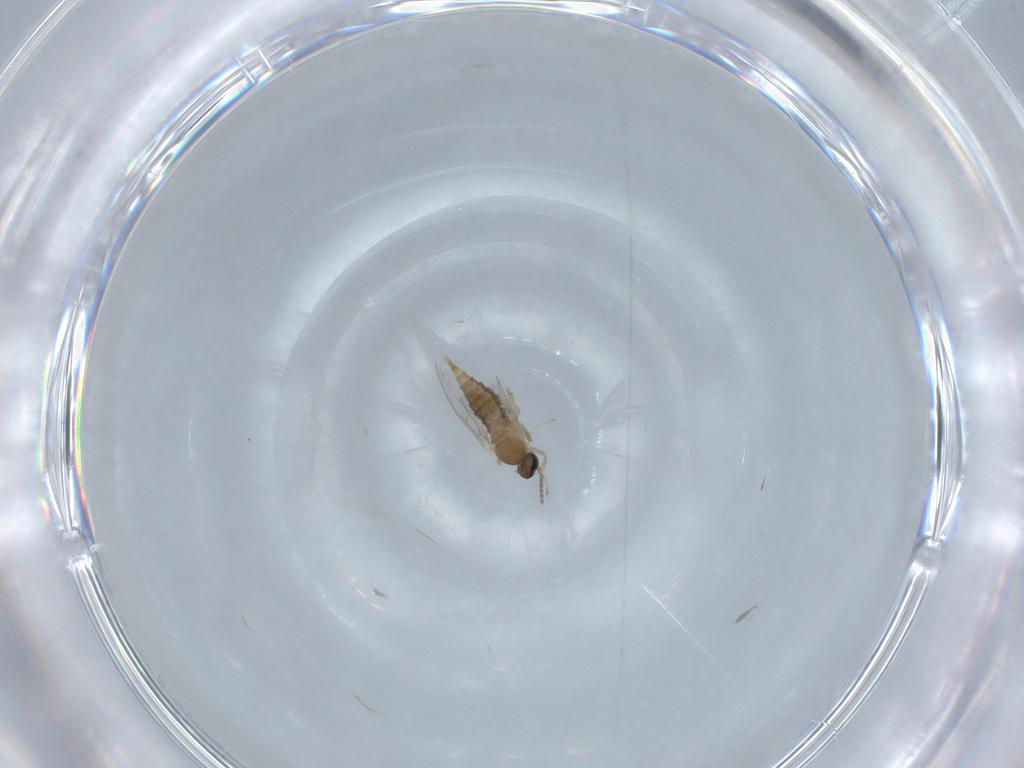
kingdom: Animalia
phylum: Arthropoda
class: Insecta
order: Diptera
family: Cecidomyiidae
